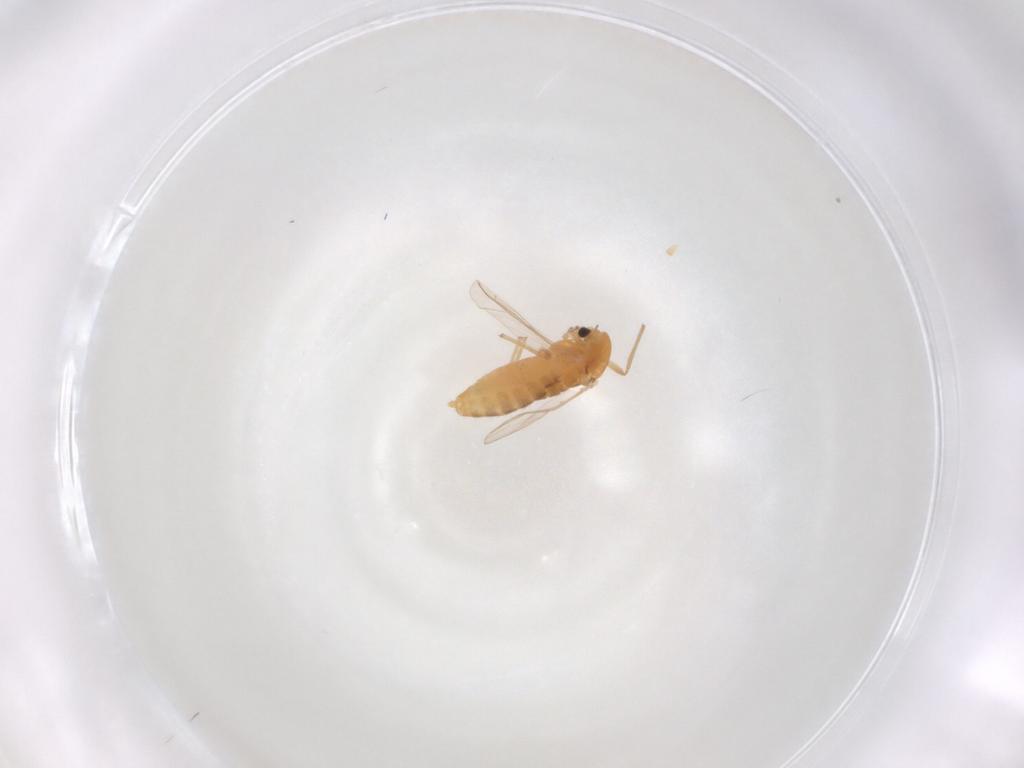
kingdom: Animalia
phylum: Arthropoda
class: Insecta
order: Diptera
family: Chironomidae
